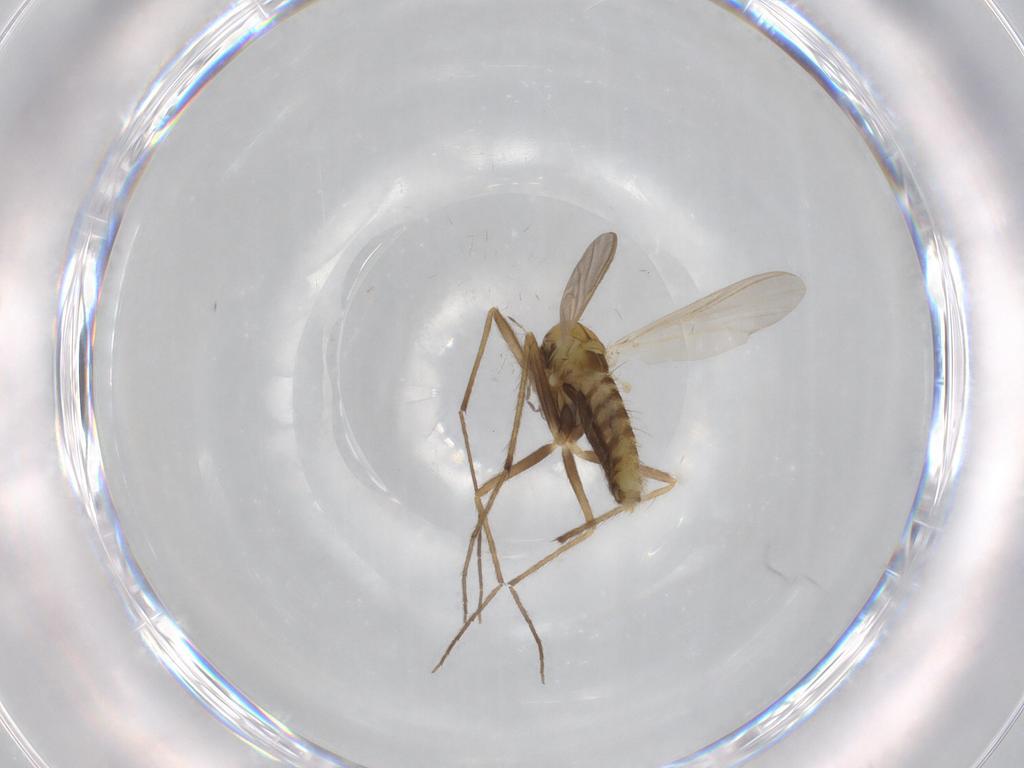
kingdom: Animalia
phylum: Arthropoda
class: Insecta
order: Diptera
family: Chironomidae
